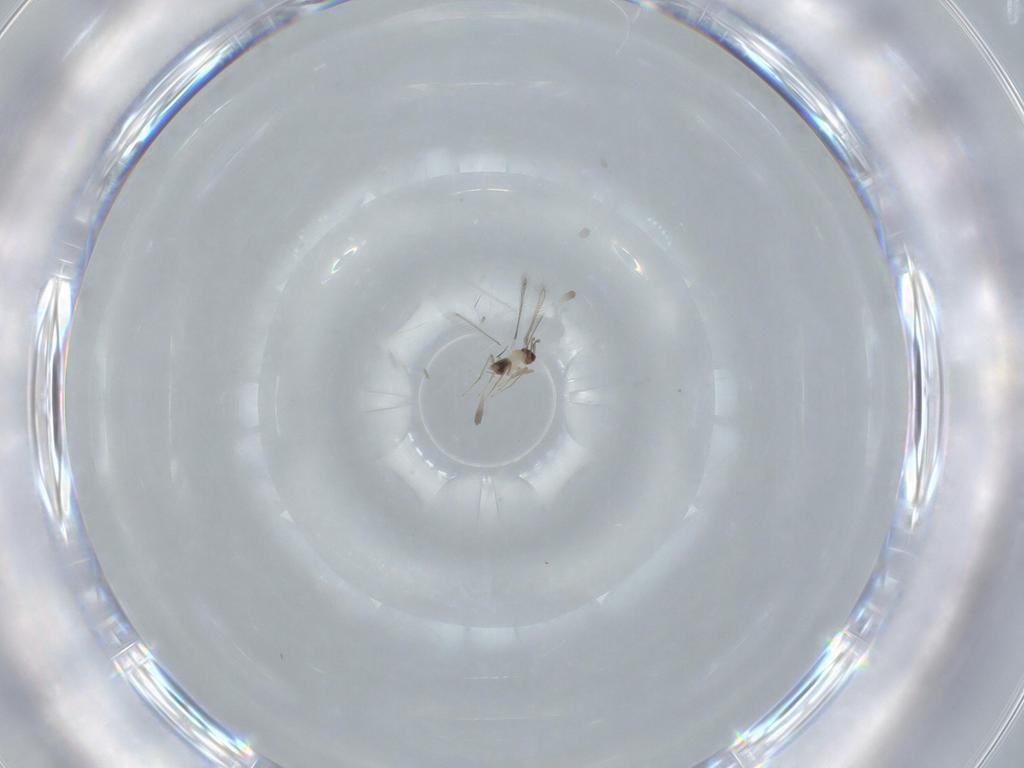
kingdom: Animalia
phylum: Arthropoda
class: Insecta
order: Hymenoptera
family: Mymaridae
